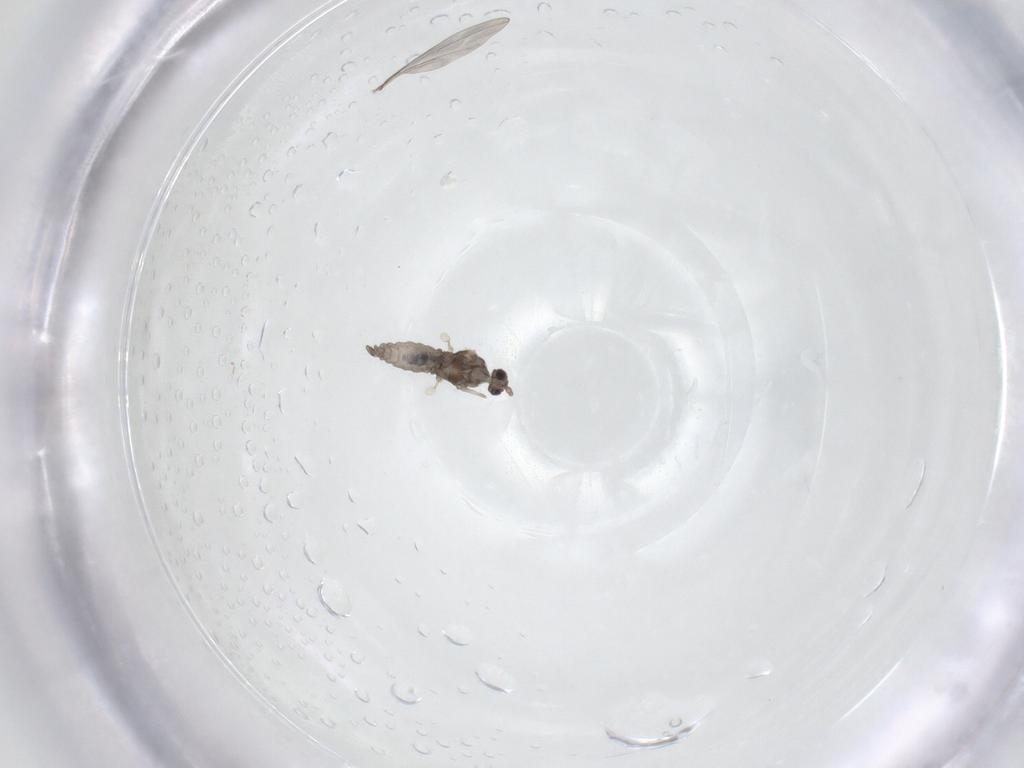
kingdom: Animalia
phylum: Arthropoda
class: Insecta
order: Diptera
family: Cecidomyiidae
